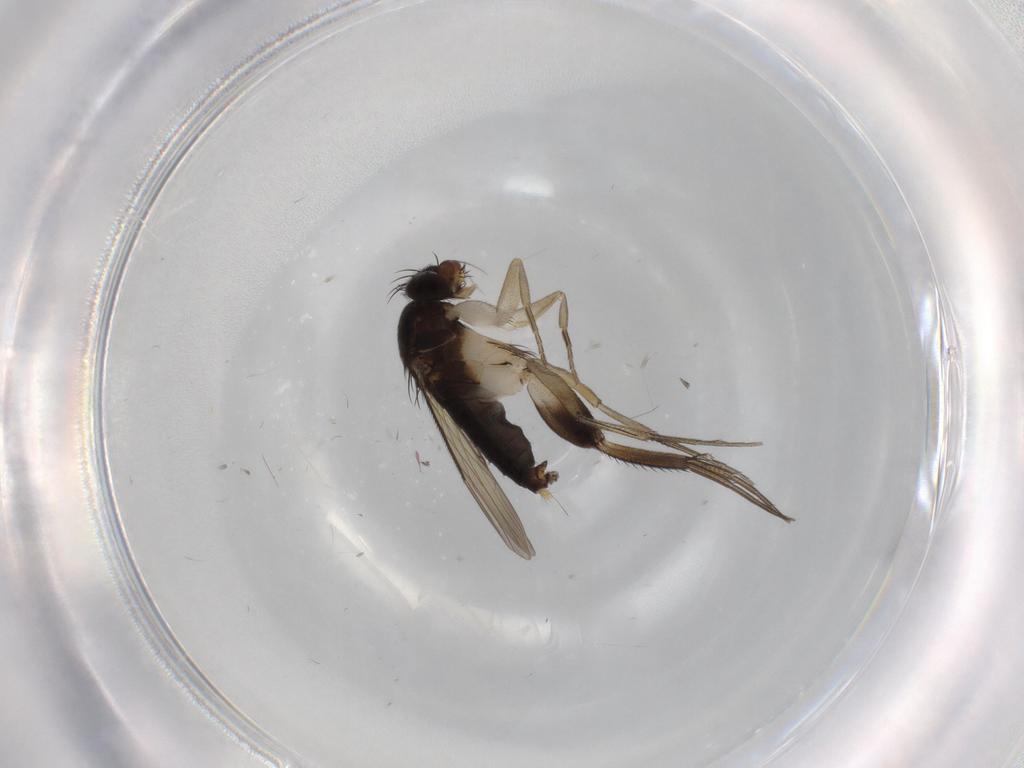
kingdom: Animalia
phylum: Arthropoda
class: Insecta
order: Diptera
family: Phoridae
